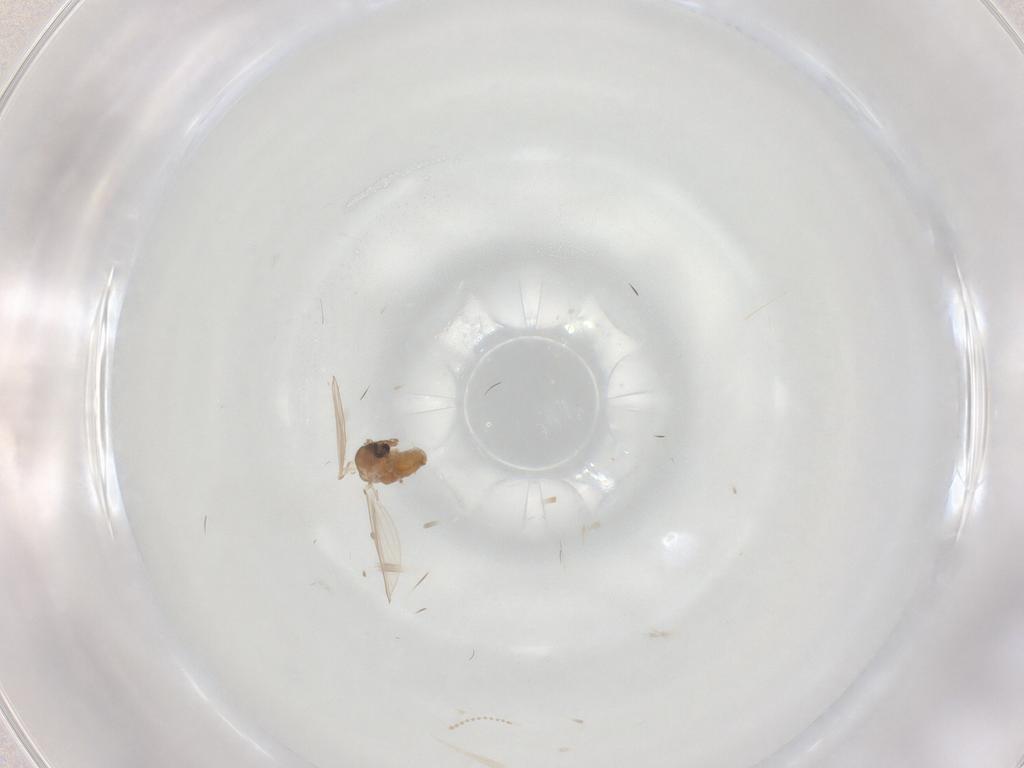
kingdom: Animalia
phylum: Arthropoda
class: Insecta
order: Diptera
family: Psychodidae
